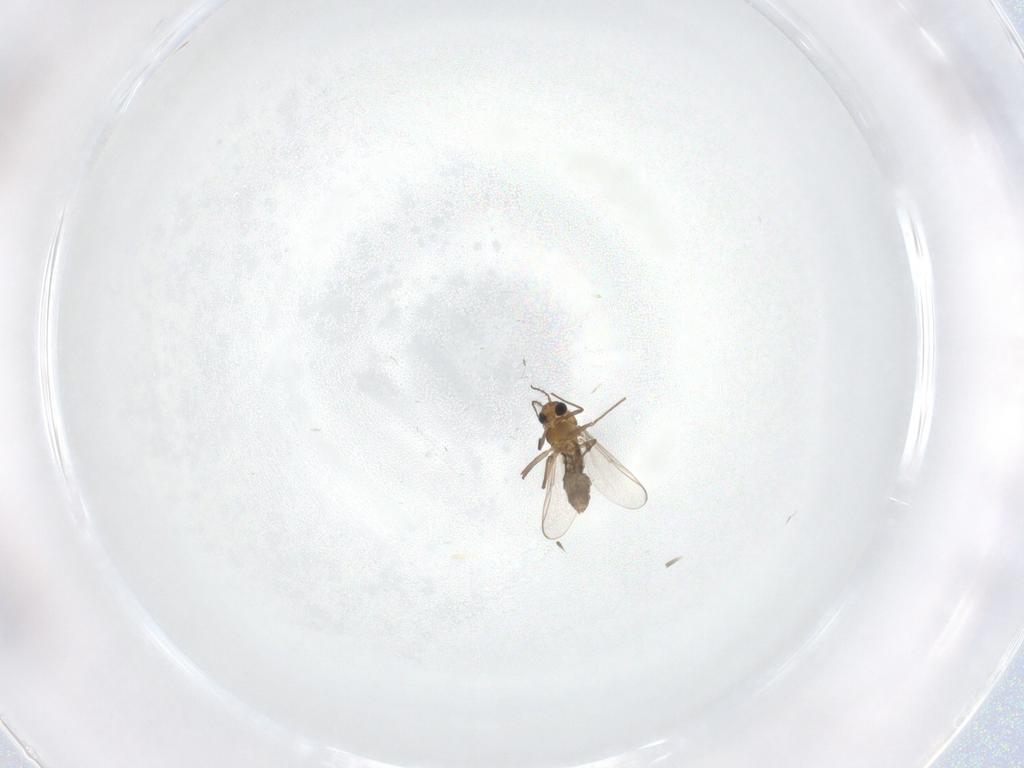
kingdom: Animalia
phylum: Arthropoda
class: Insecta
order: Diptera
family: Chironomidae
